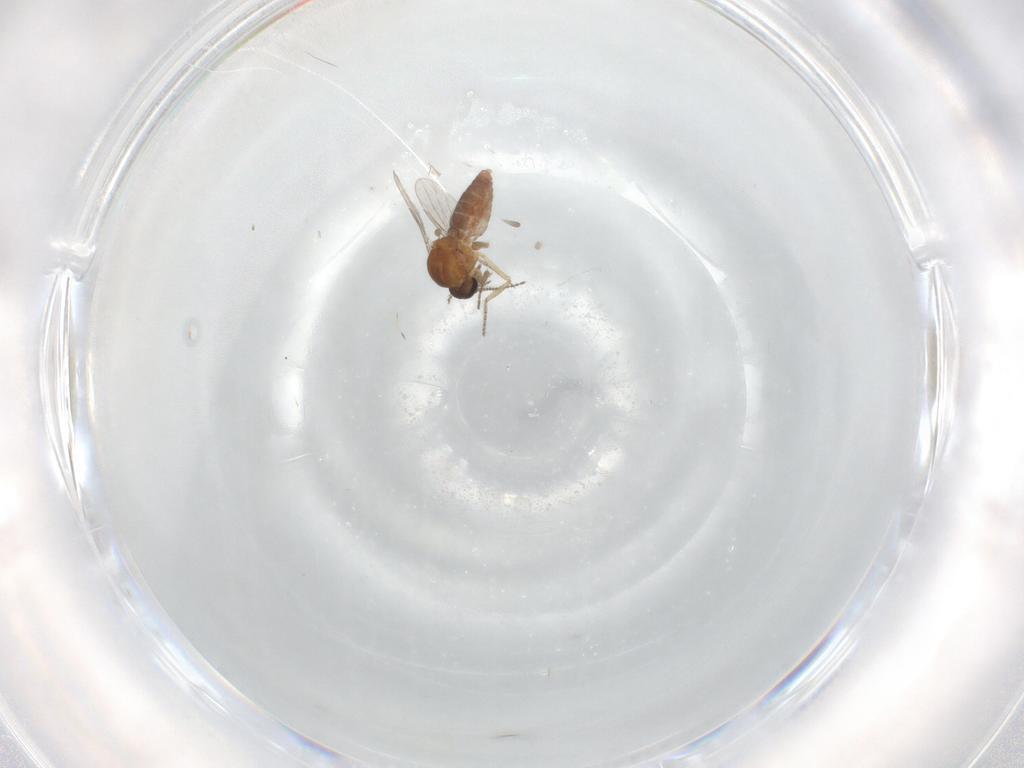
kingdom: Animalia
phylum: Arthropoda
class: Insecta
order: Diptera
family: Ceratopogonidae
